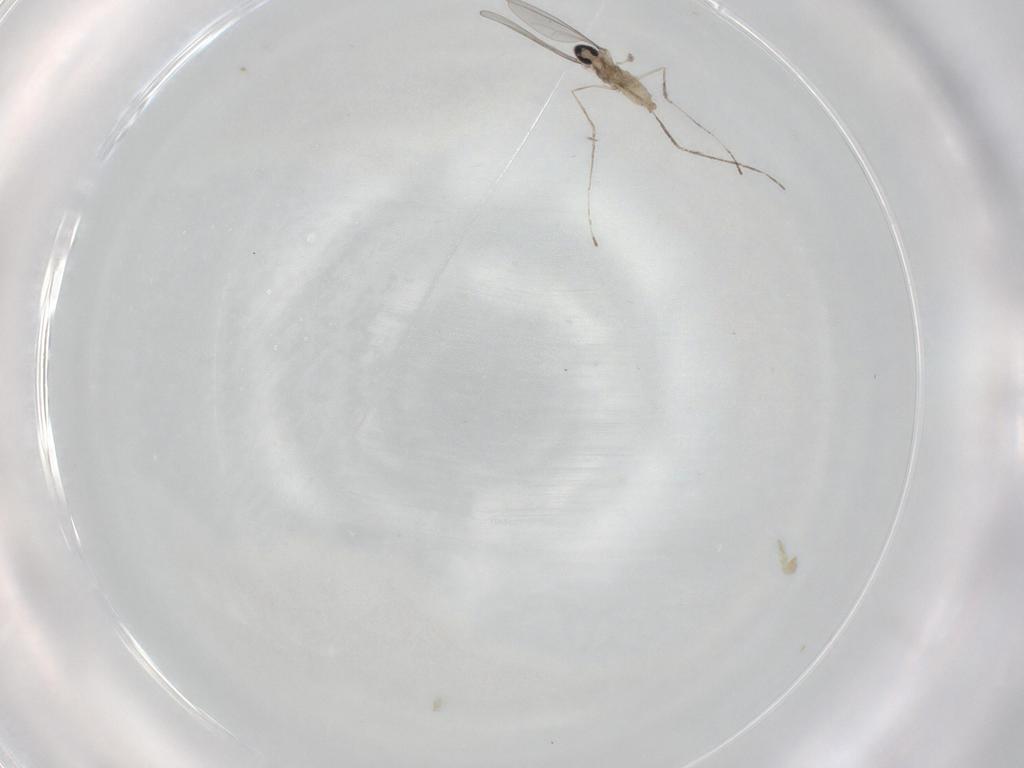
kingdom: Animalia
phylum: Arthropoda
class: Insecta
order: Diptera
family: Cecidomyiidae
